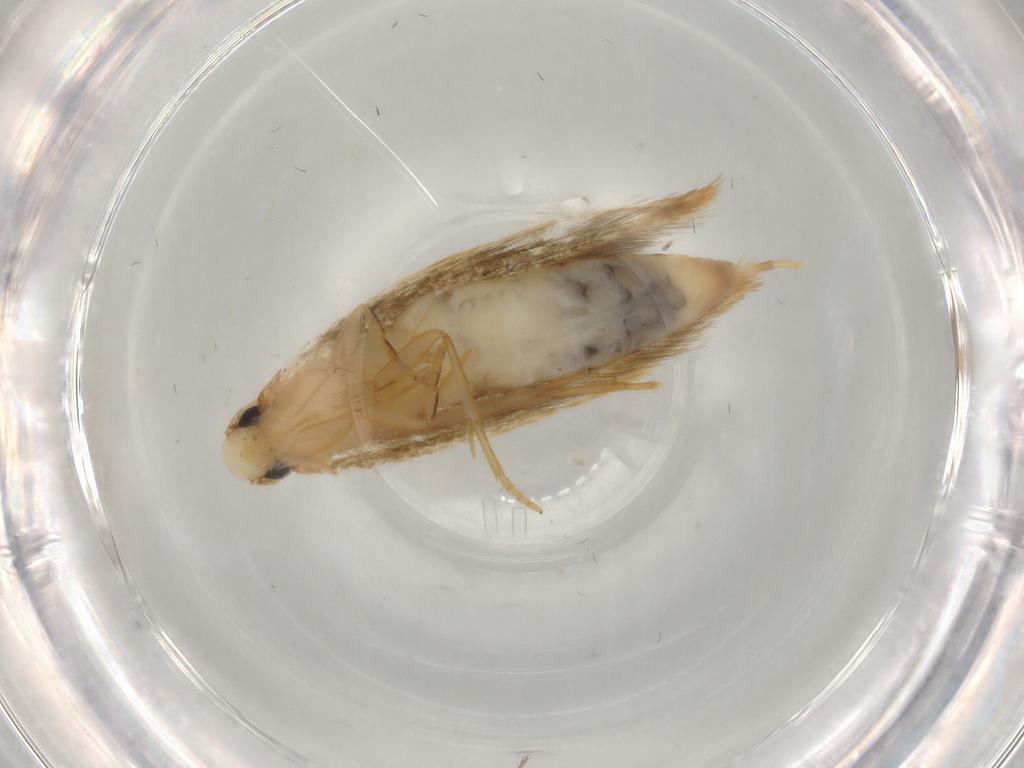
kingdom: Animalia
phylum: Arthropoda
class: Insecta
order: Lepidoptera
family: Tineidae
